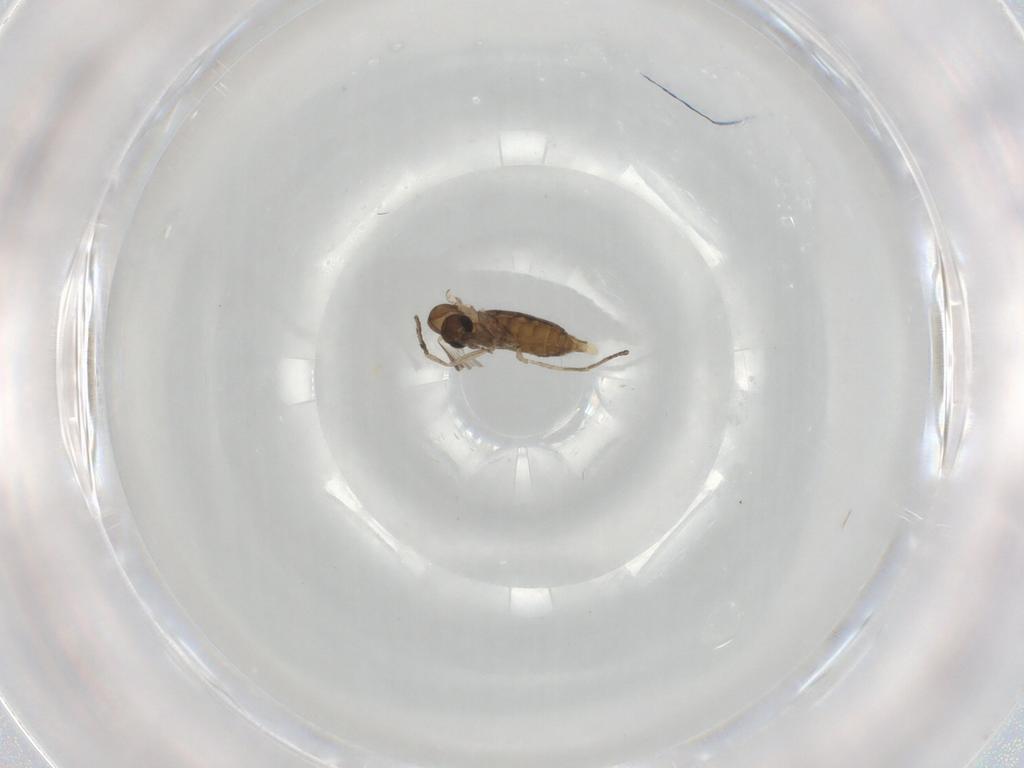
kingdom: Animalia
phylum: Arthropoda
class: Insecta
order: Diptera
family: Psychodidae
